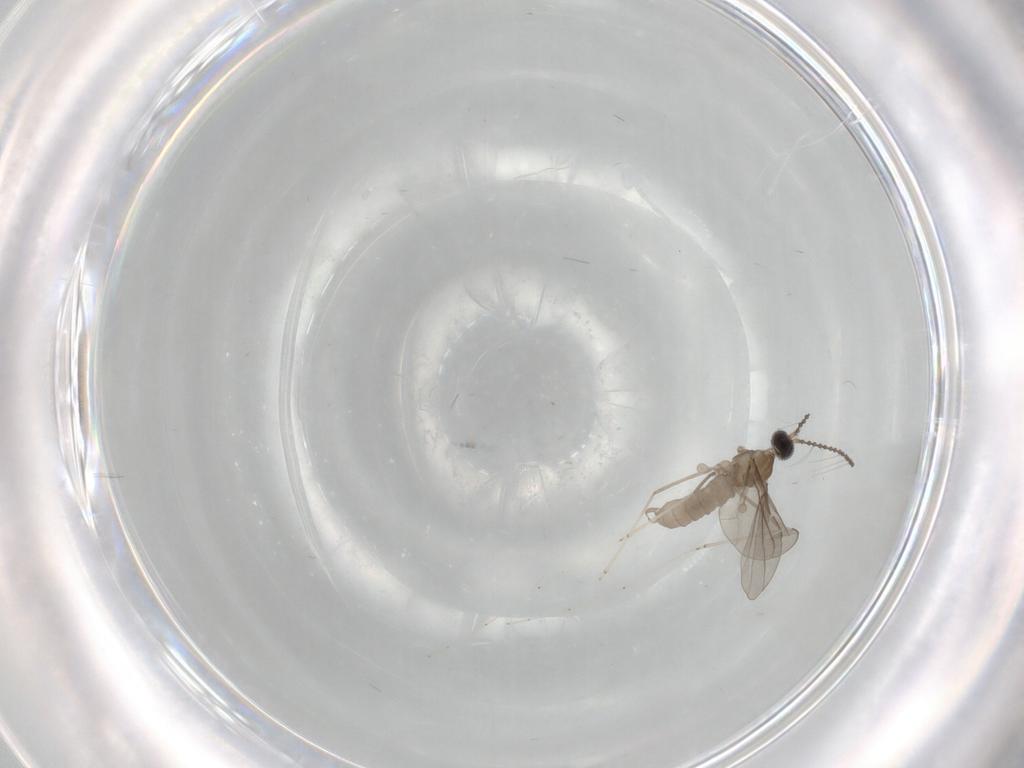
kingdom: Animalia
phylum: Arthropoda
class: Insecta
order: Diptera
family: Cecidomyiidae
